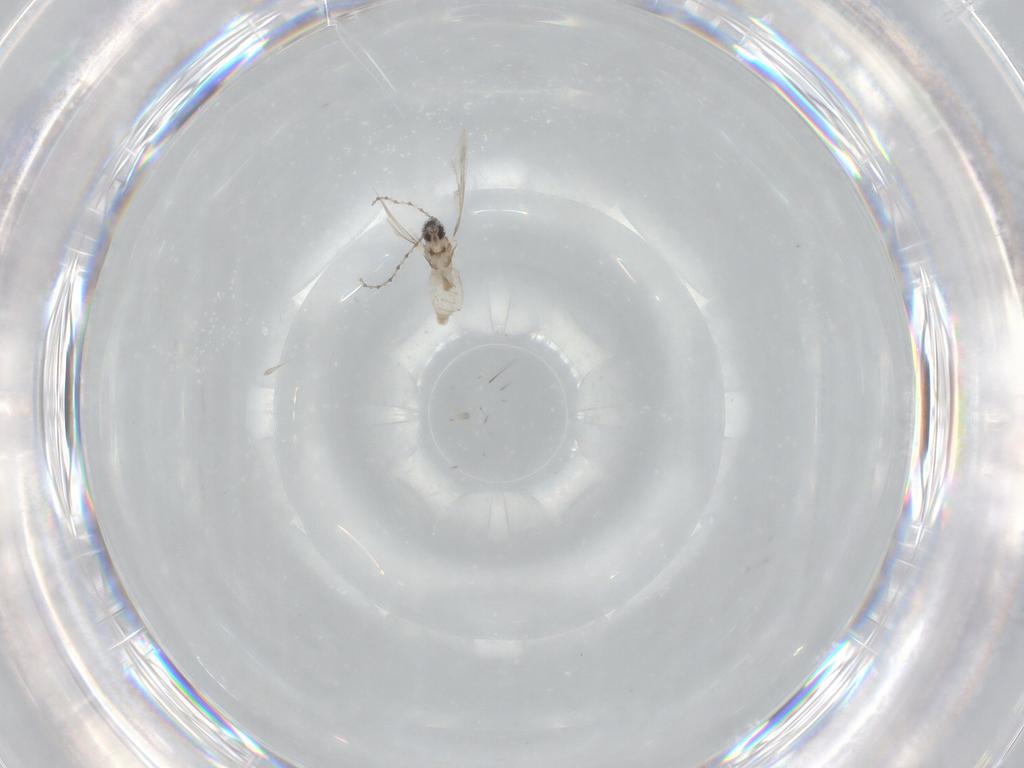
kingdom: Animalia
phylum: Arthropoda
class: Insecta
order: Diptera
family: Cecidomyiidae
